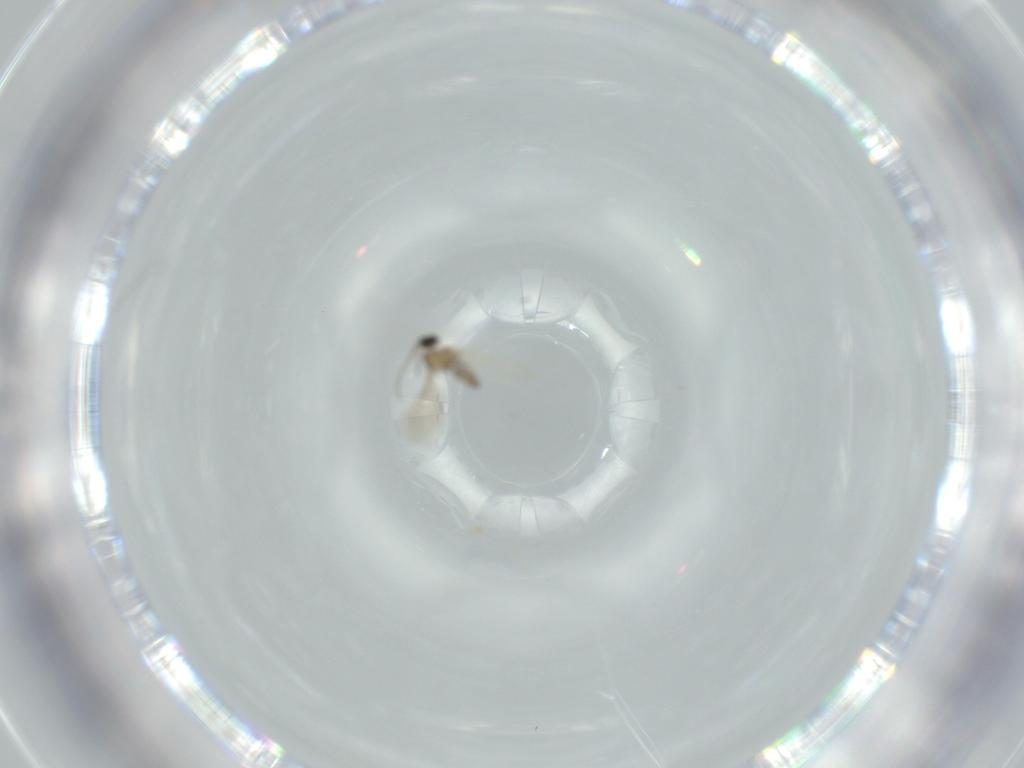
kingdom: Animalia
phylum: Arthropoda
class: Insecta
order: Diptera
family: Cecidomyiidae
